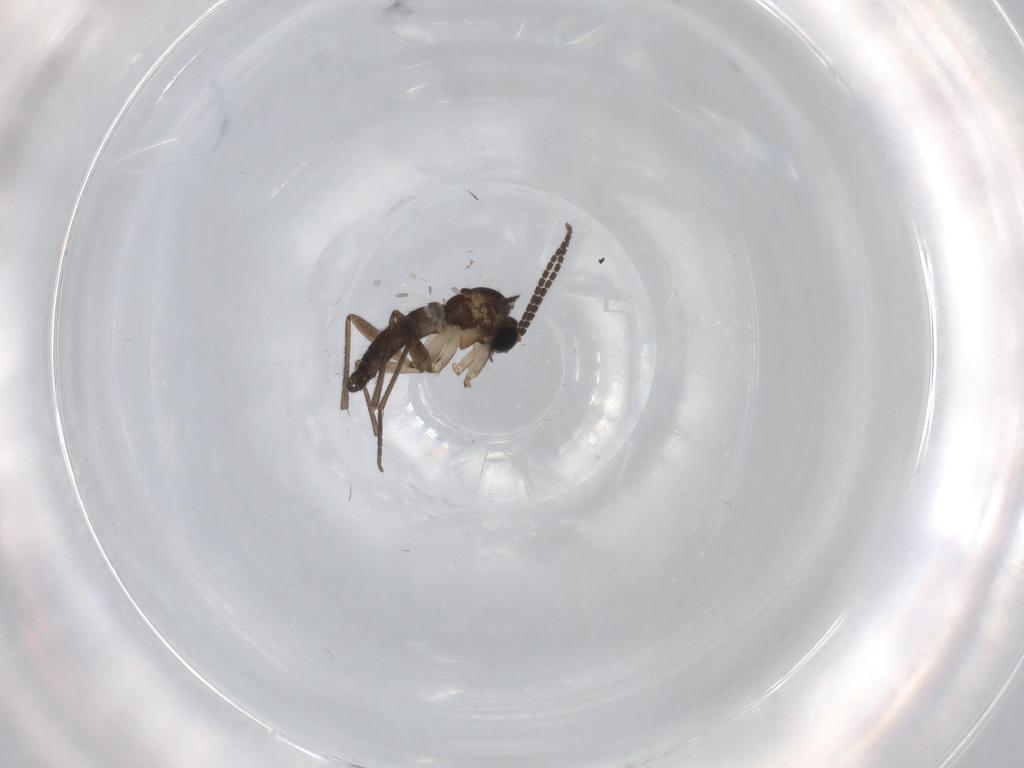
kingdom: Animalia
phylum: Arthropoda
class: Insecta
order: Diptera
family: Sciaridae
